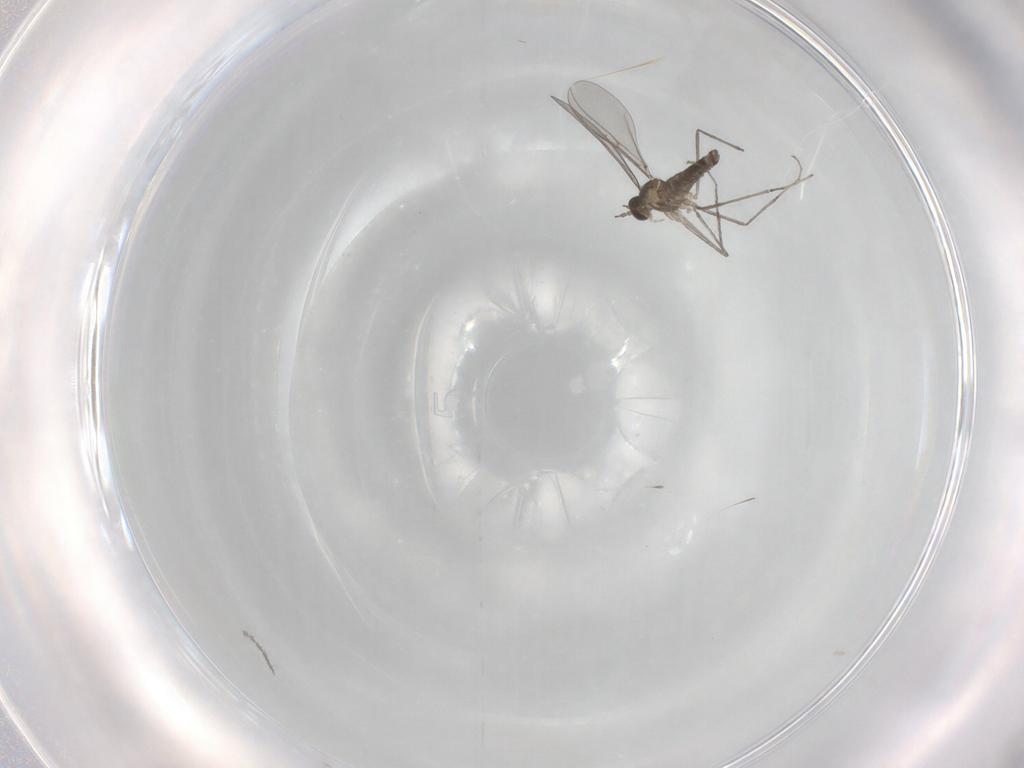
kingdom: Animalia
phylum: Arthropoda
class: Insecta
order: Diptera
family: Cecidomyiidae
